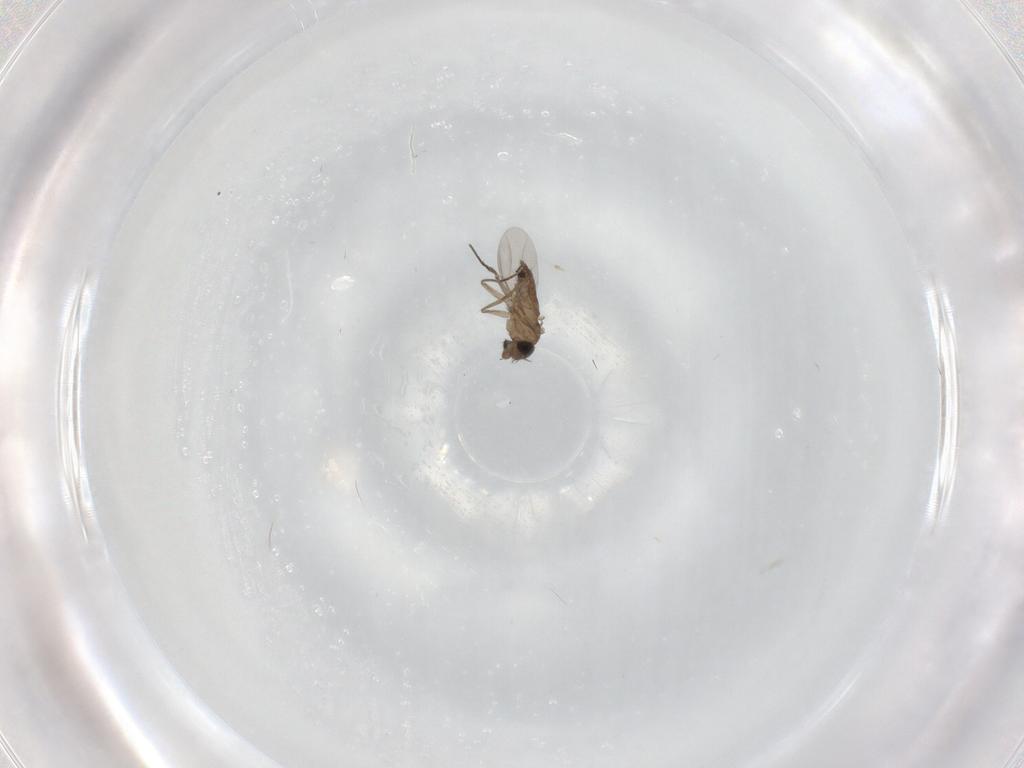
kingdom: Animalia
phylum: Arthropoda
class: Insecta
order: Diptera
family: Phoridae
